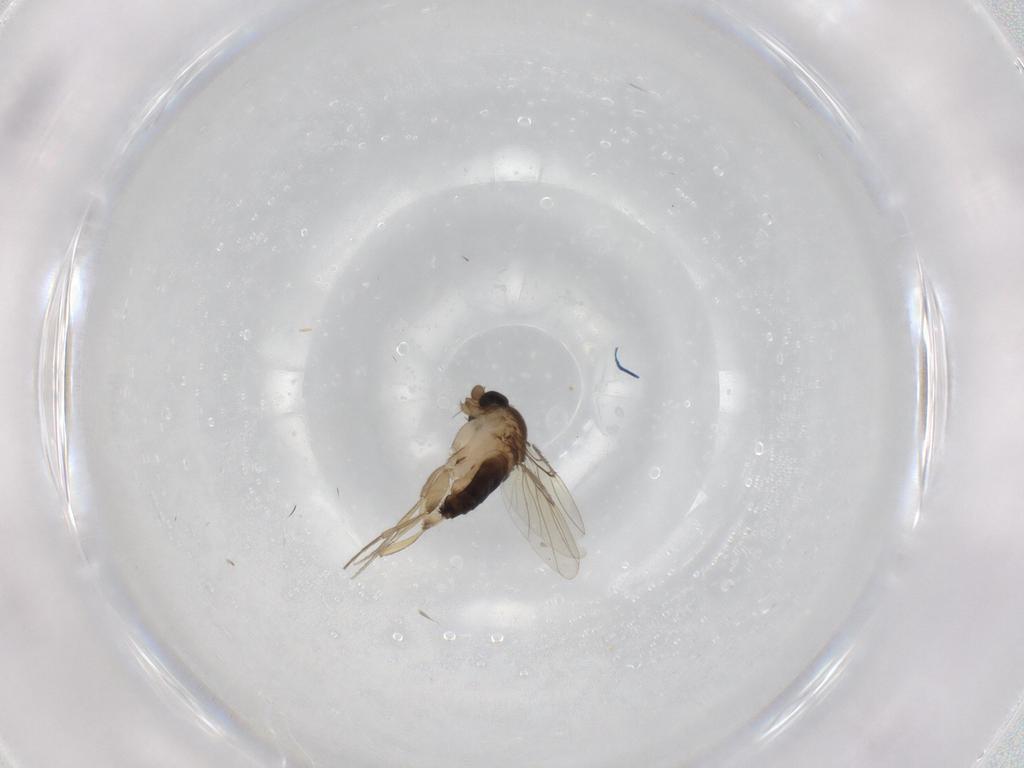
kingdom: Animalia
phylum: Arthropoda
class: Insecta
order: Diptera
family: Phoridae
